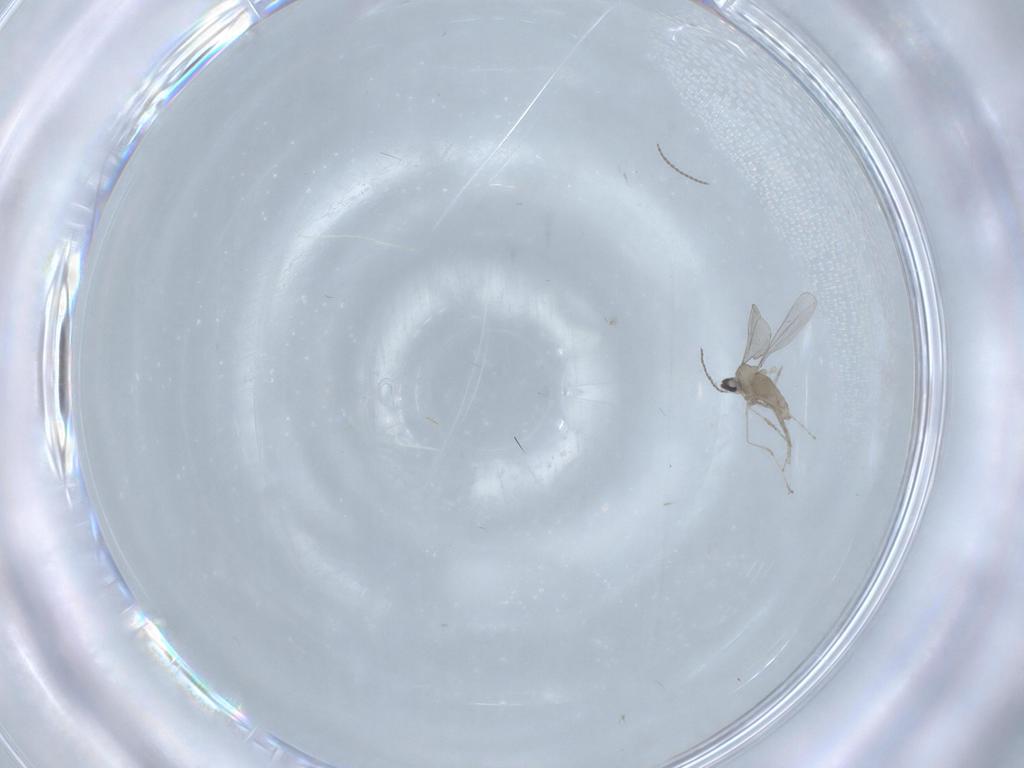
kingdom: Animalia
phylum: Arthropoda
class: Insecta
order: Diptera
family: Cecidomyiidae
